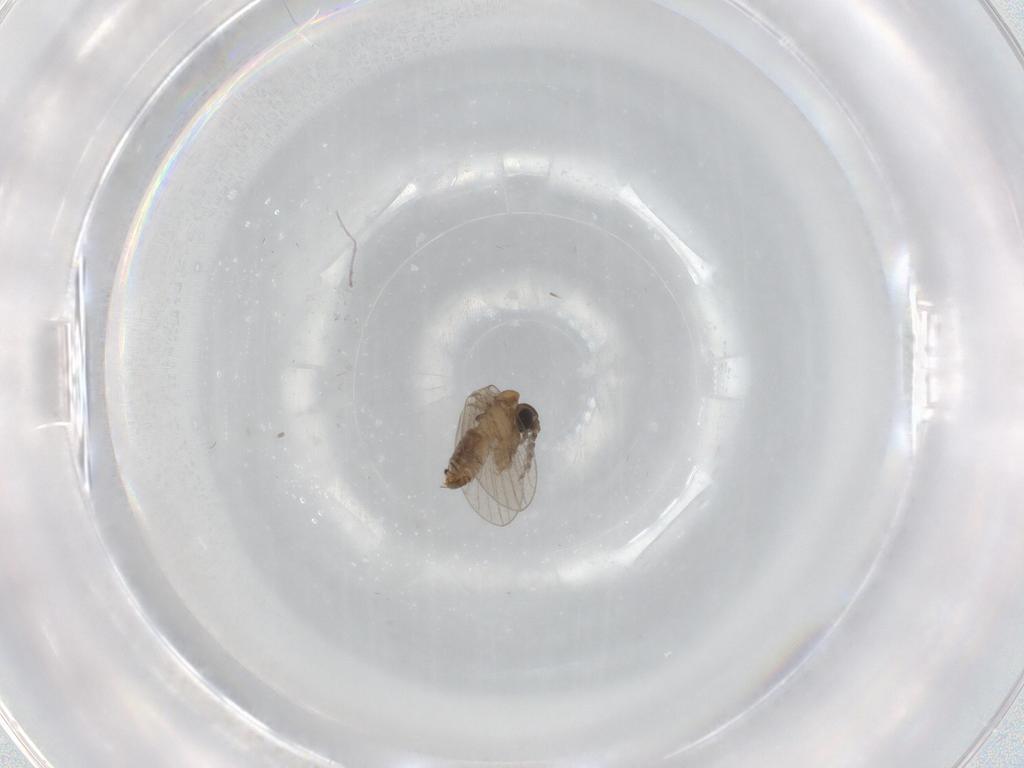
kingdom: Animalia
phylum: Arthropoda
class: Insecta
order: Diptera
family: Psychodidae
